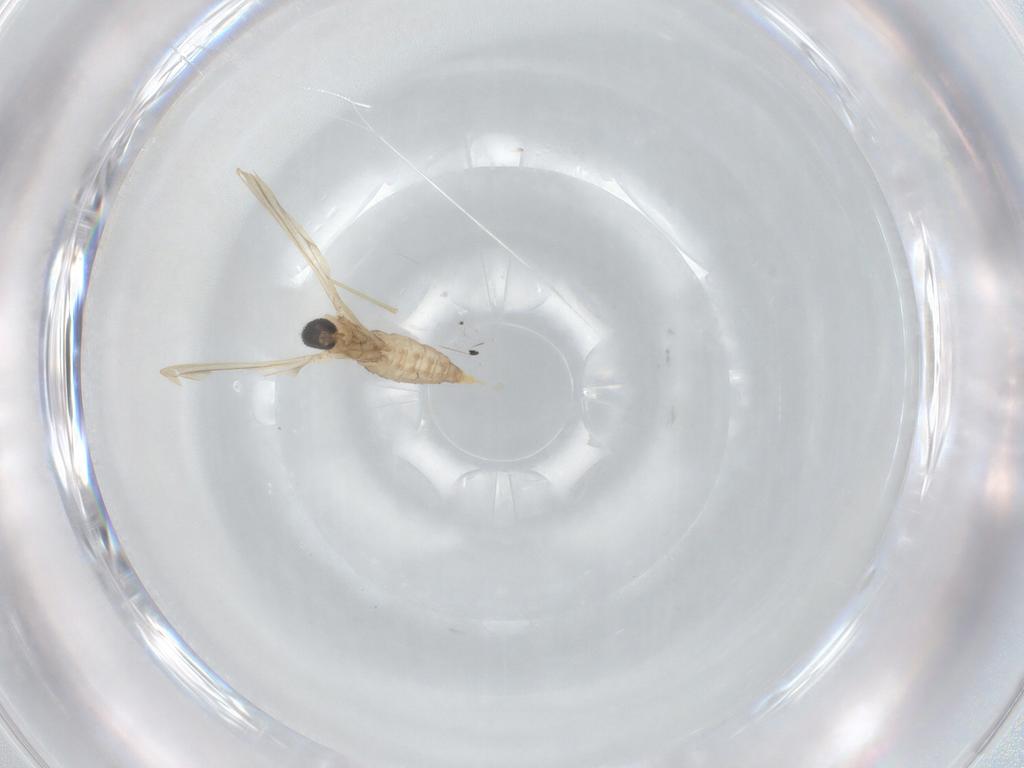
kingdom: Animalia
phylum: Arthropoda
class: Insecta
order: Diptera
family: Cecidomyiidae
